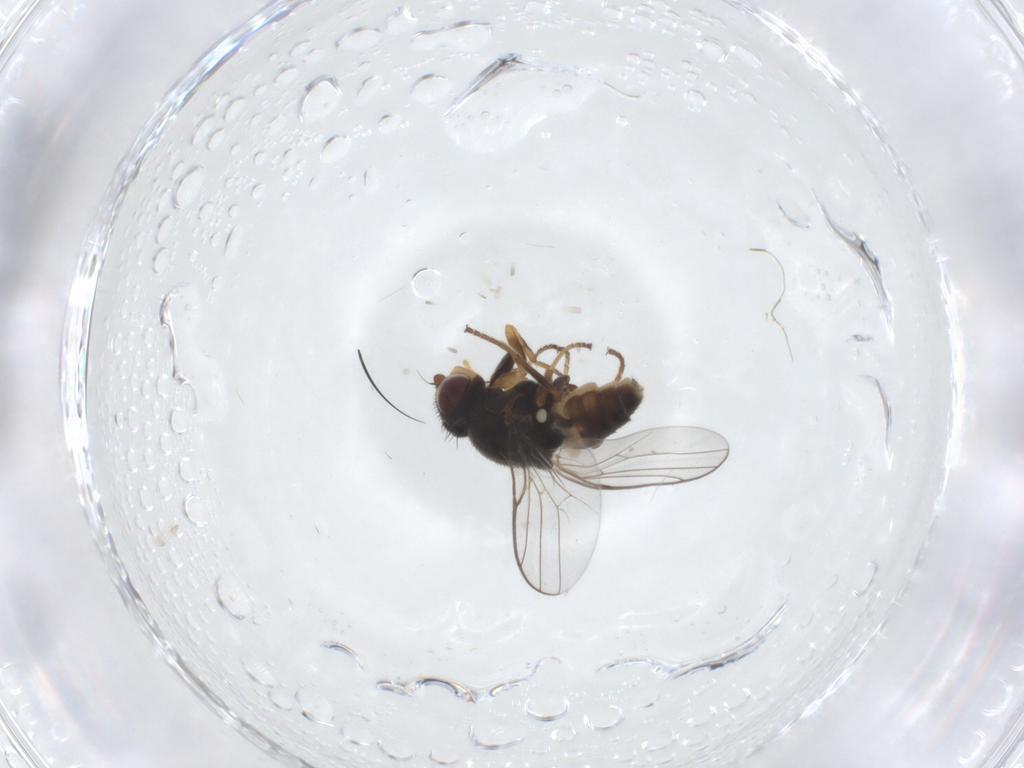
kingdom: Animalia
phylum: Arthropoda
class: Insecta
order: Diptera
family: Chloropidae
